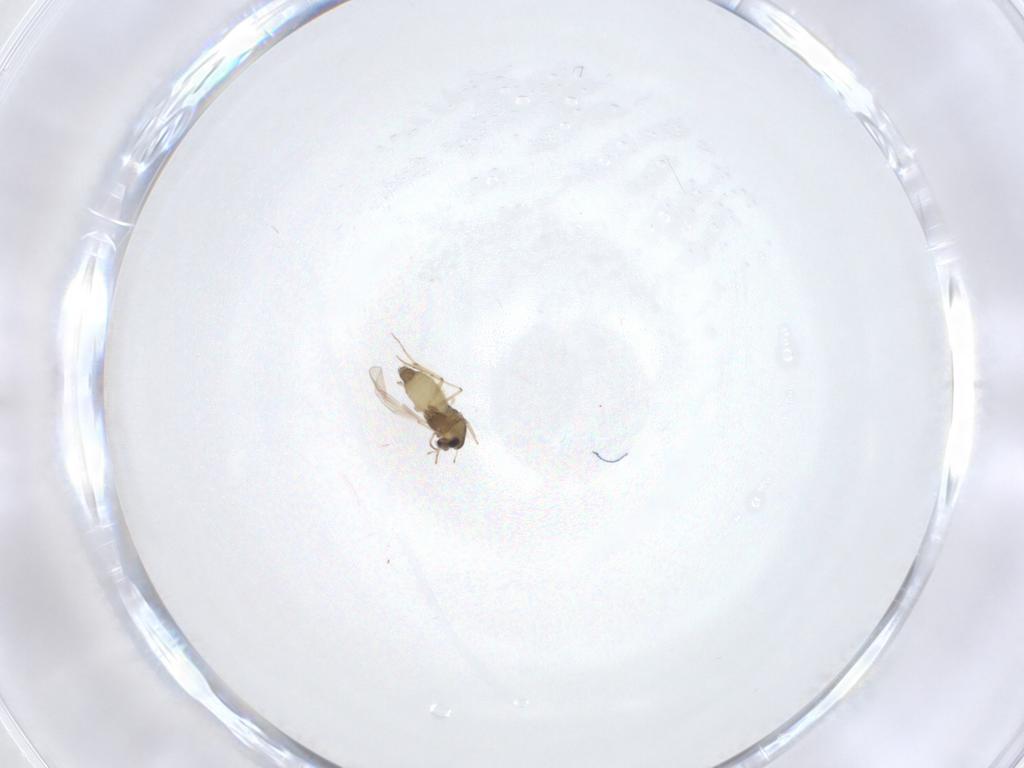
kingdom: Animalia
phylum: Arthropoda
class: Insecta
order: Diptera
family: Chironomidae
